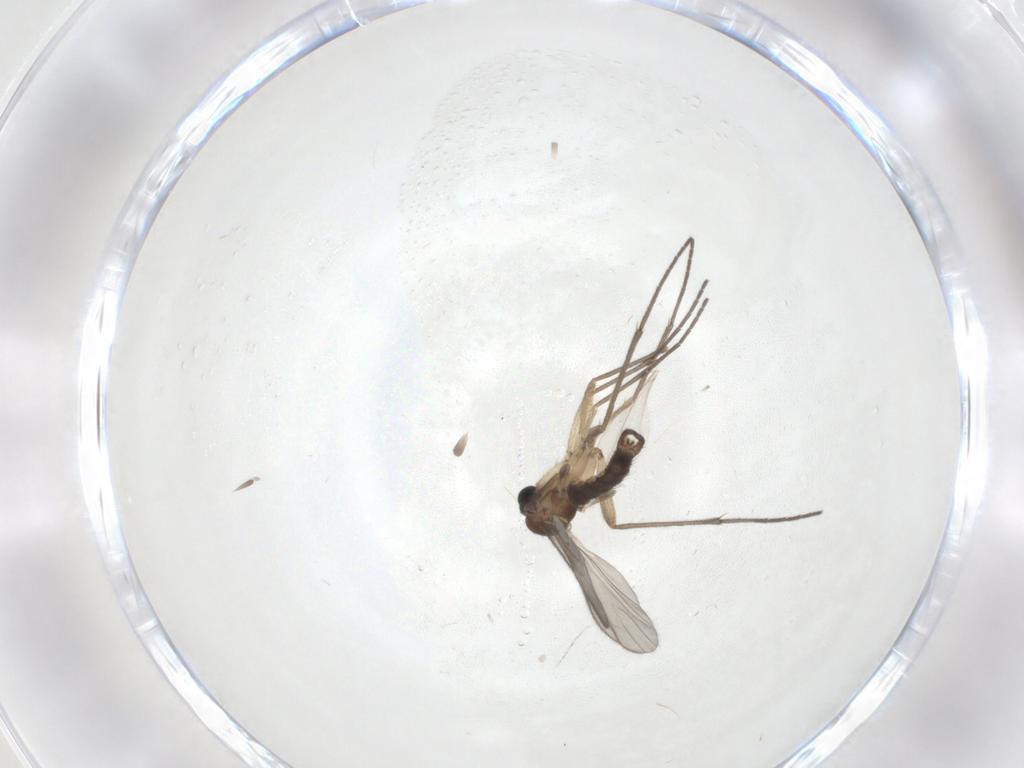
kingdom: Animalia
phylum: Arthropoda
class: Insecta
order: Diptera
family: Sciaridae
